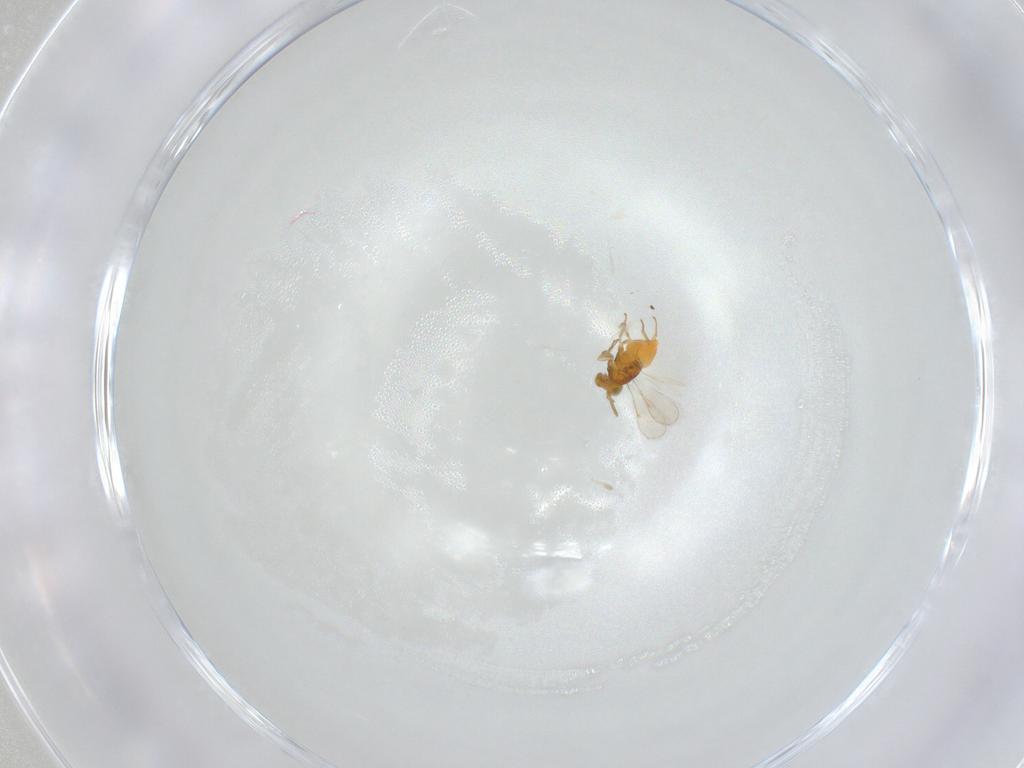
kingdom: Animalia
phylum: Arthropoda
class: Insecta
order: Hymenoptera
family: Aphelinidae
